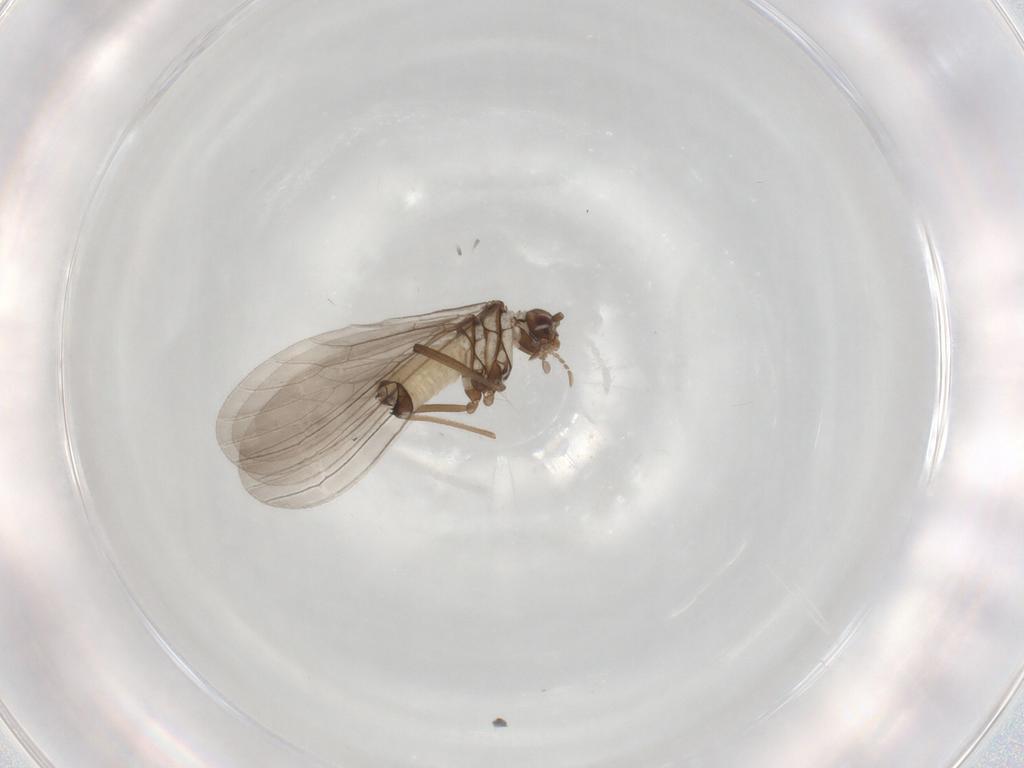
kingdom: Animalia
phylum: Arthropoda
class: Insecta
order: Neuroptera
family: Coniopterygidae
